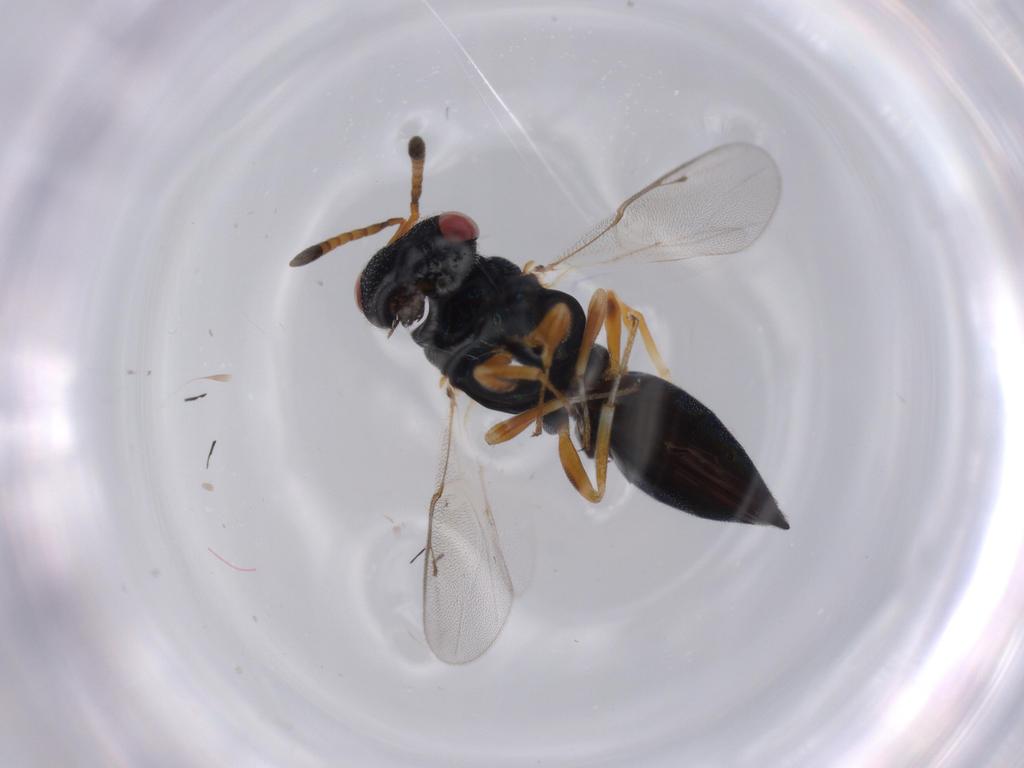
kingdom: Animalia
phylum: Arthropoda
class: Insecta
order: Hymenoptera
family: Pteromalidae
